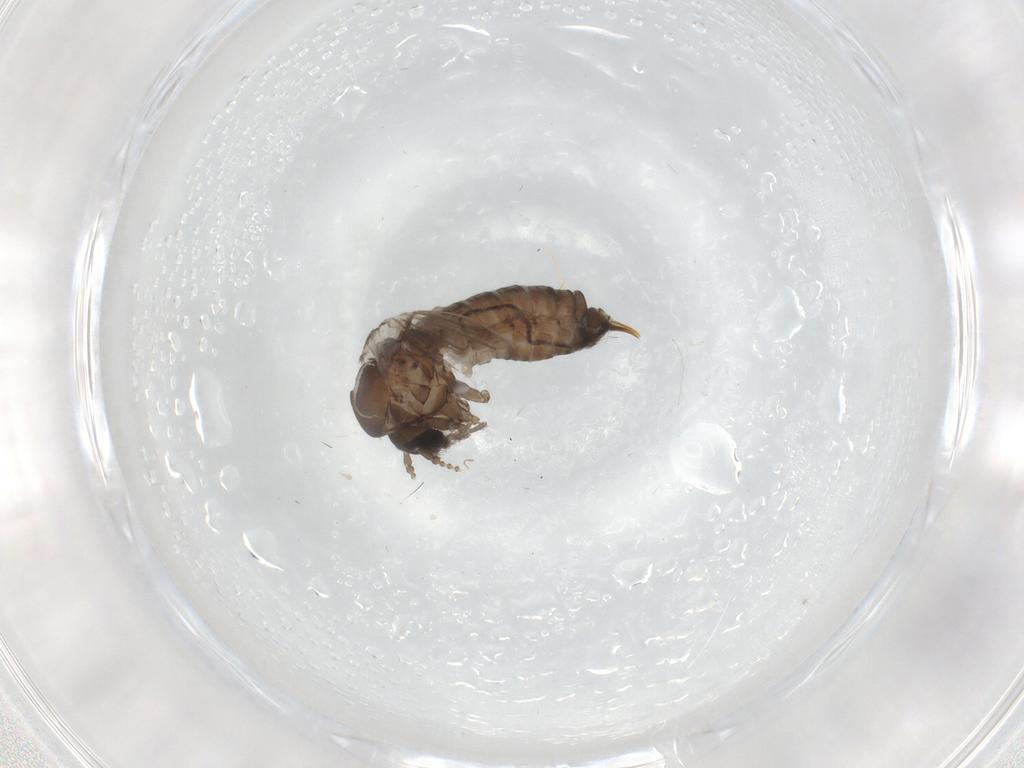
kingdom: Animalia
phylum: Arthropoda
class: Insecta
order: Diptera
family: Psychodidae
